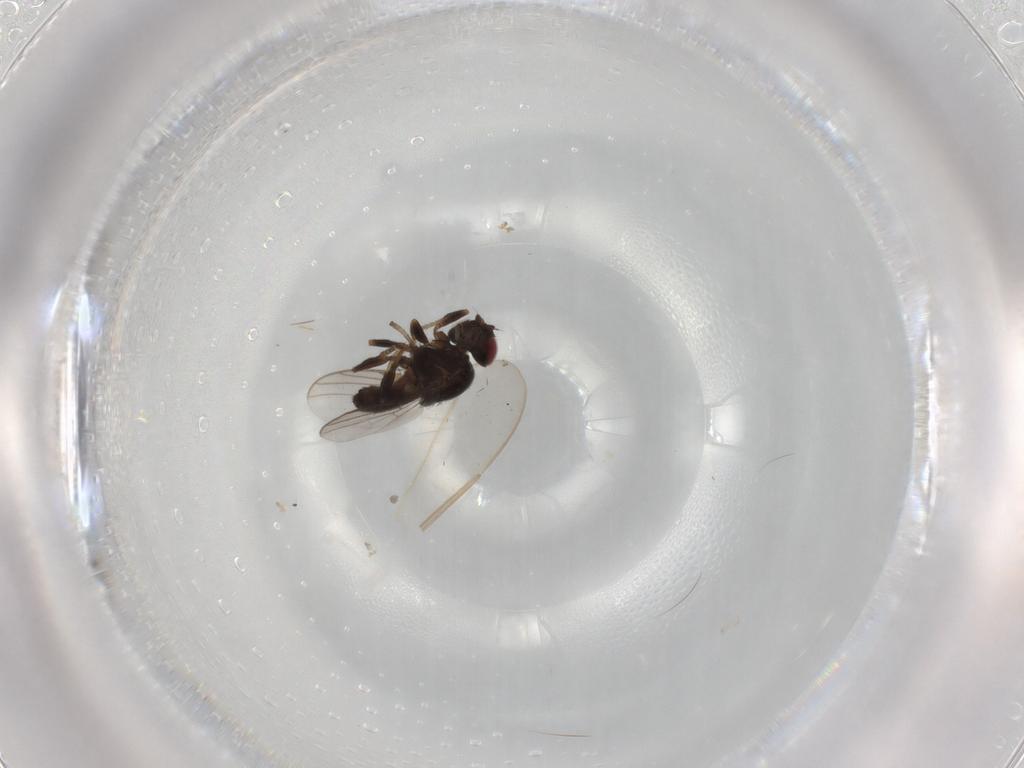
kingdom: Animalia
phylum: Arthropoda
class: Insecta
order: Diptera
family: Chloropidae
